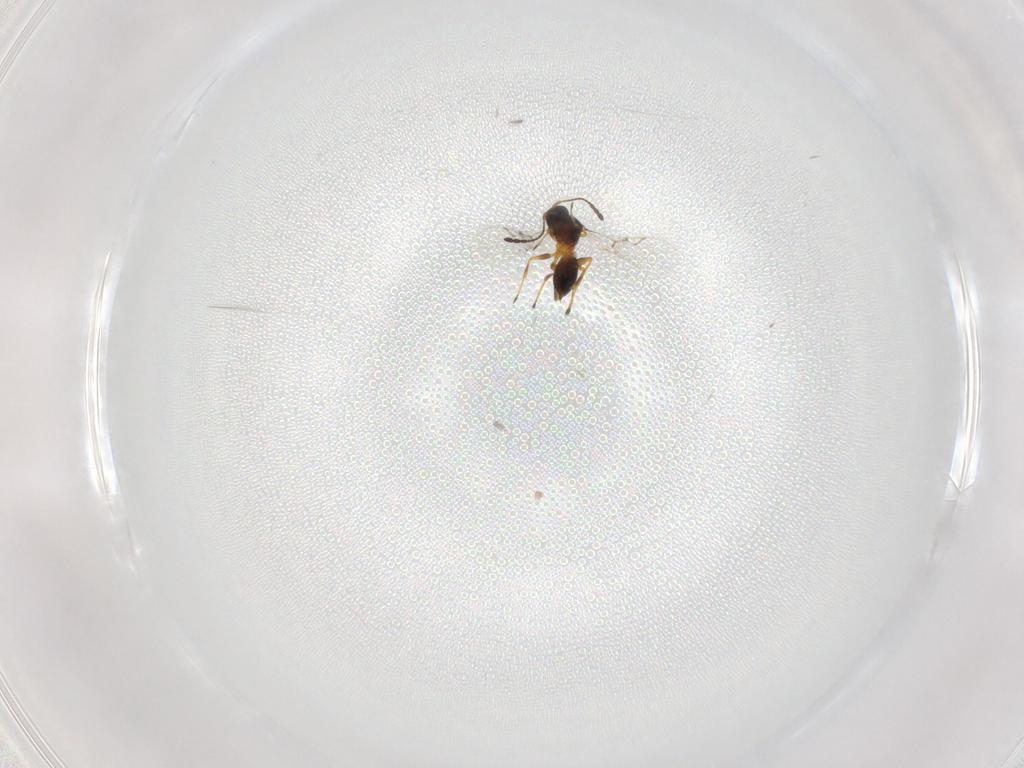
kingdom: Animalia
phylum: Arthropoda
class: Insecta
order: Hymenoptera
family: Figitidae
